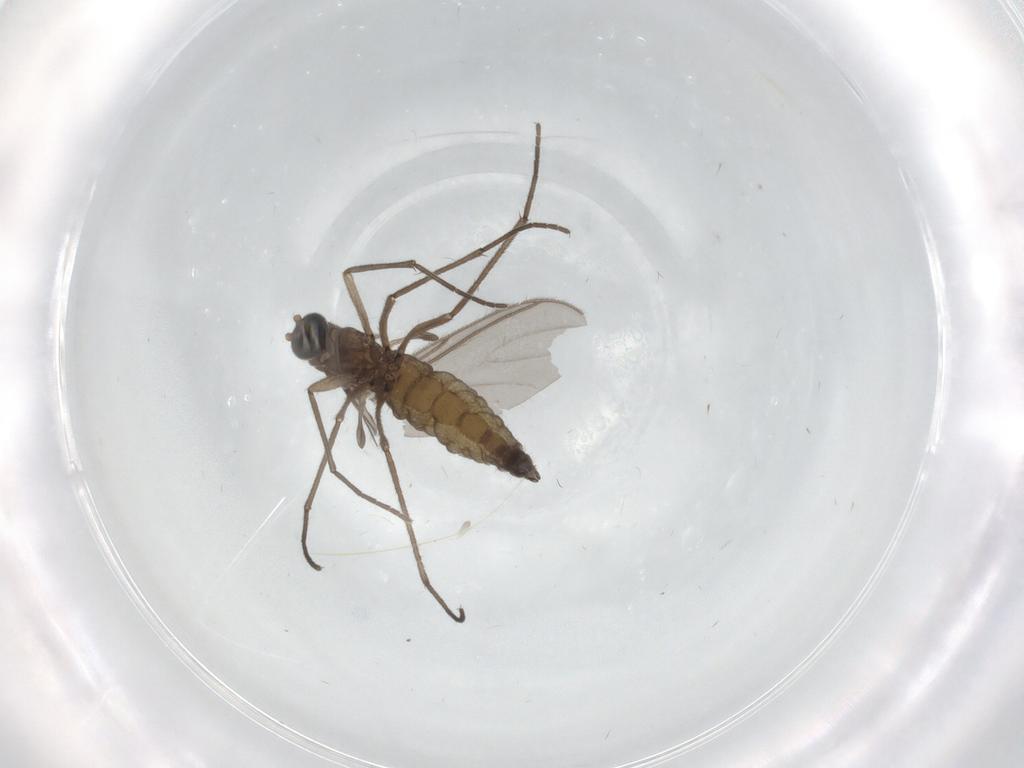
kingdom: Animalia
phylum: Arthropoda
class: Insecta
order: Diptera
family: Sciaridae
